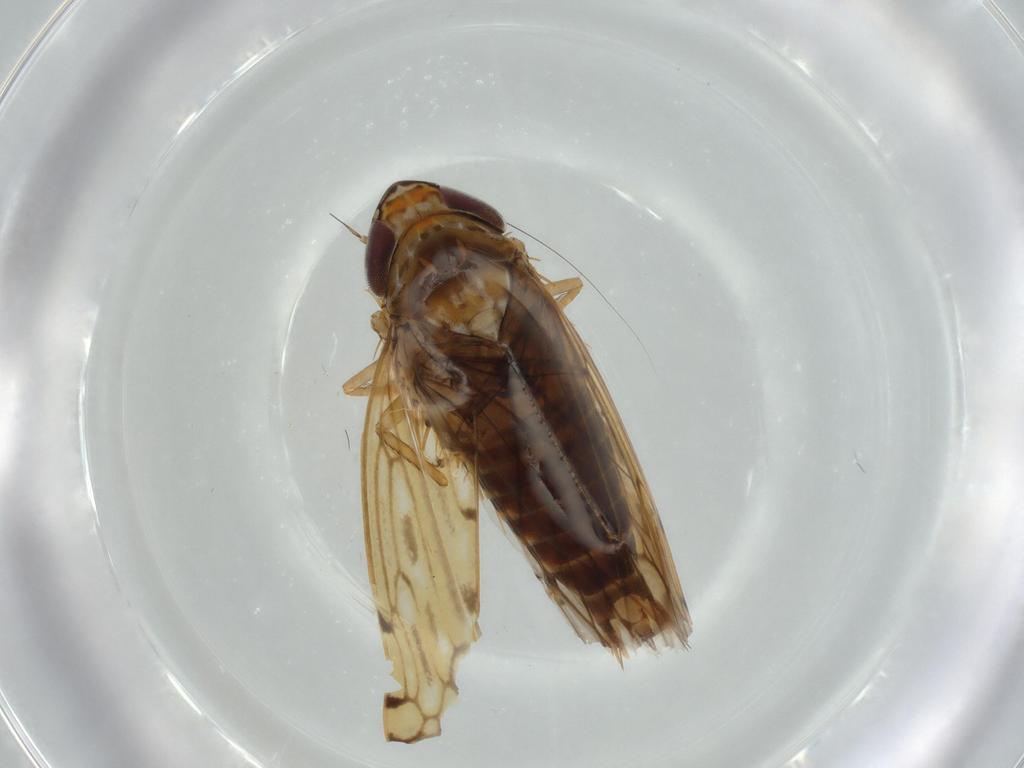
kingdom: Animalia
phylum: Arthropoda
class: Insecta
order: Hemiptera
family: Cicadellidae
